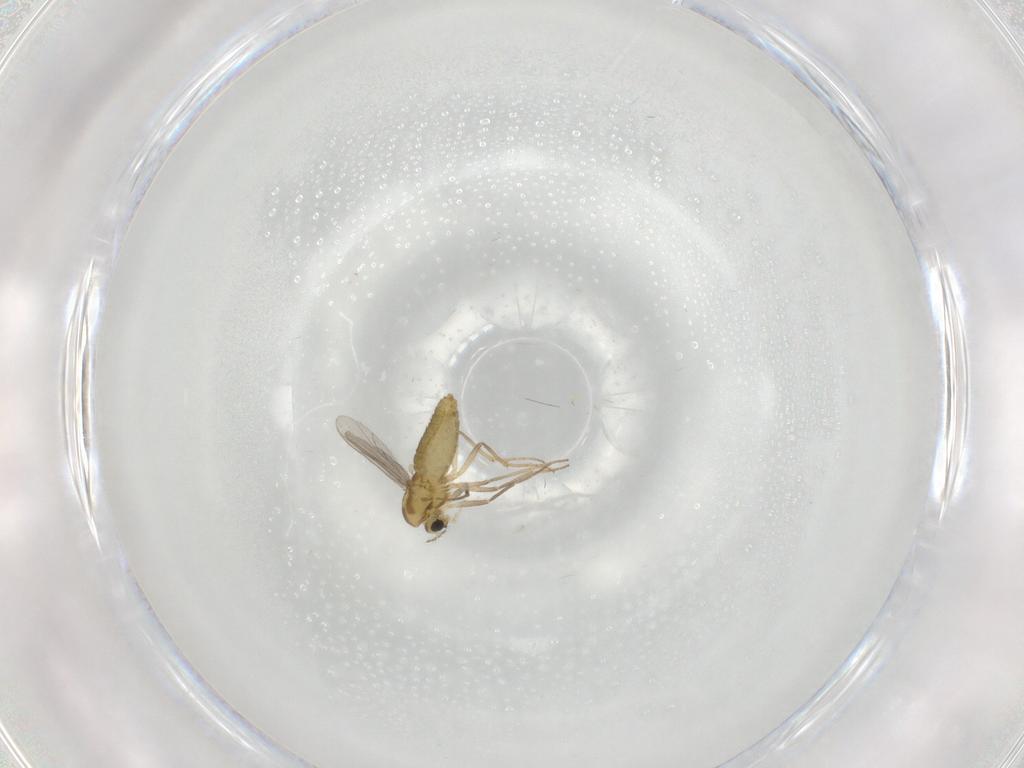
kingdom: Animalia
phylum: Arthropoda
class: Insecta
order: Diptera
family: Chironomidae
